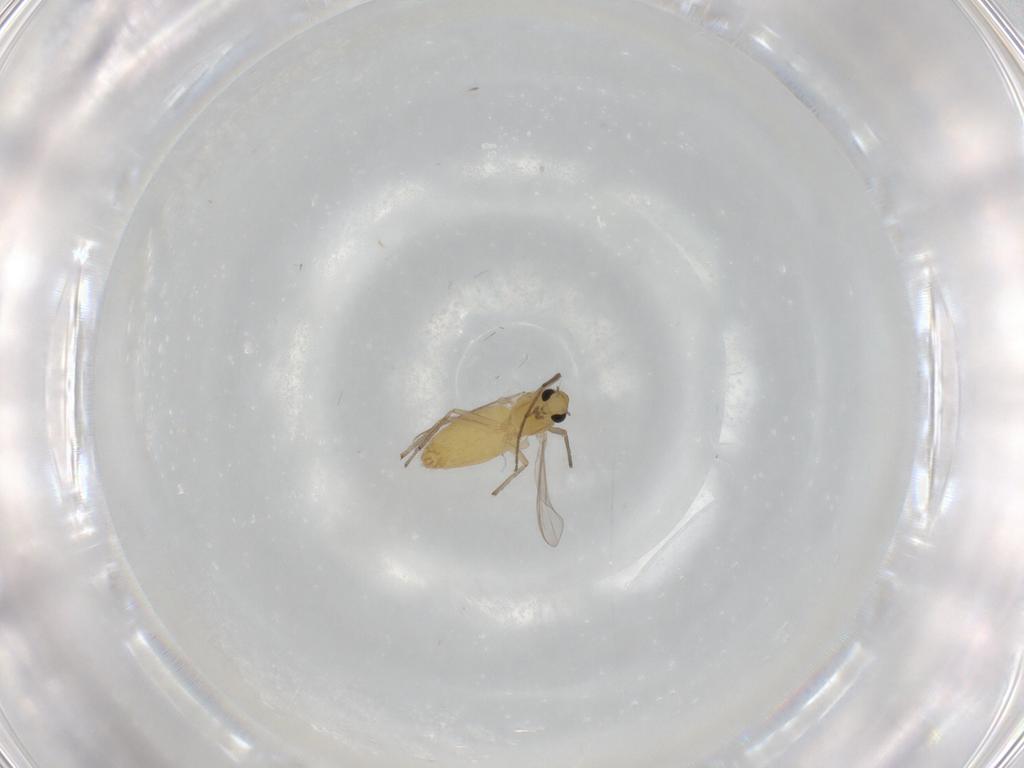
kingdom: Animalia
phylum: Arthropoda
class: Insecta
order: Diptera
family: Chironomidae
